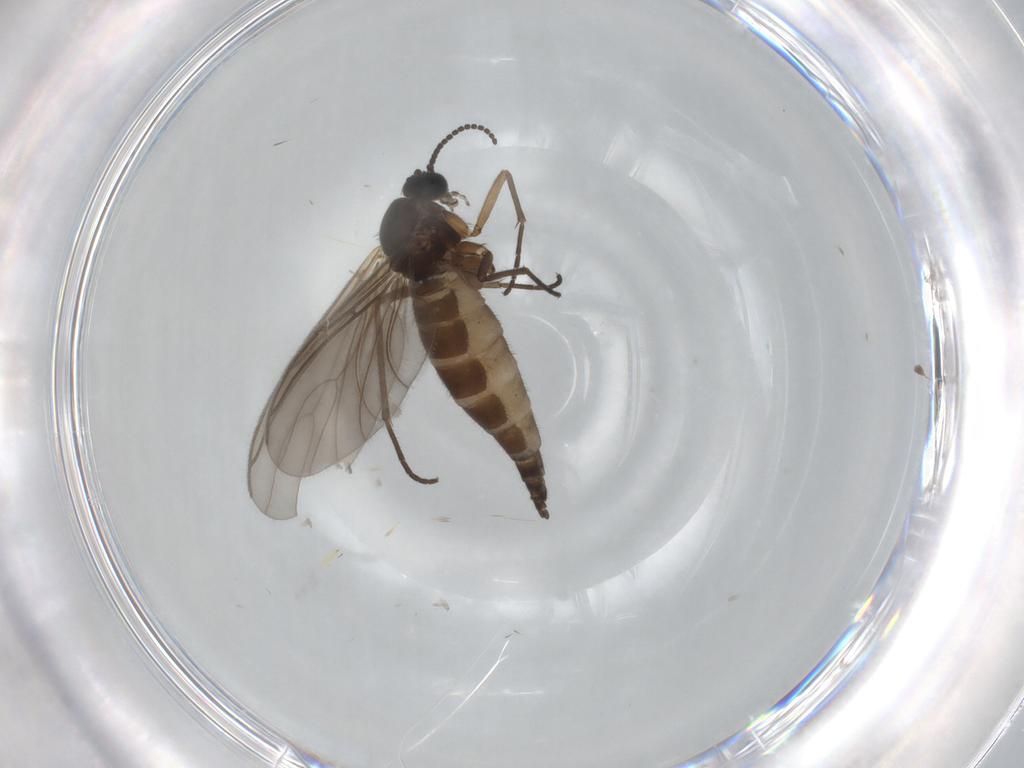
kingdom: Animalia
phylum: Arthropoda
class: Insecta
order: Diptera
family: Sciaridae
